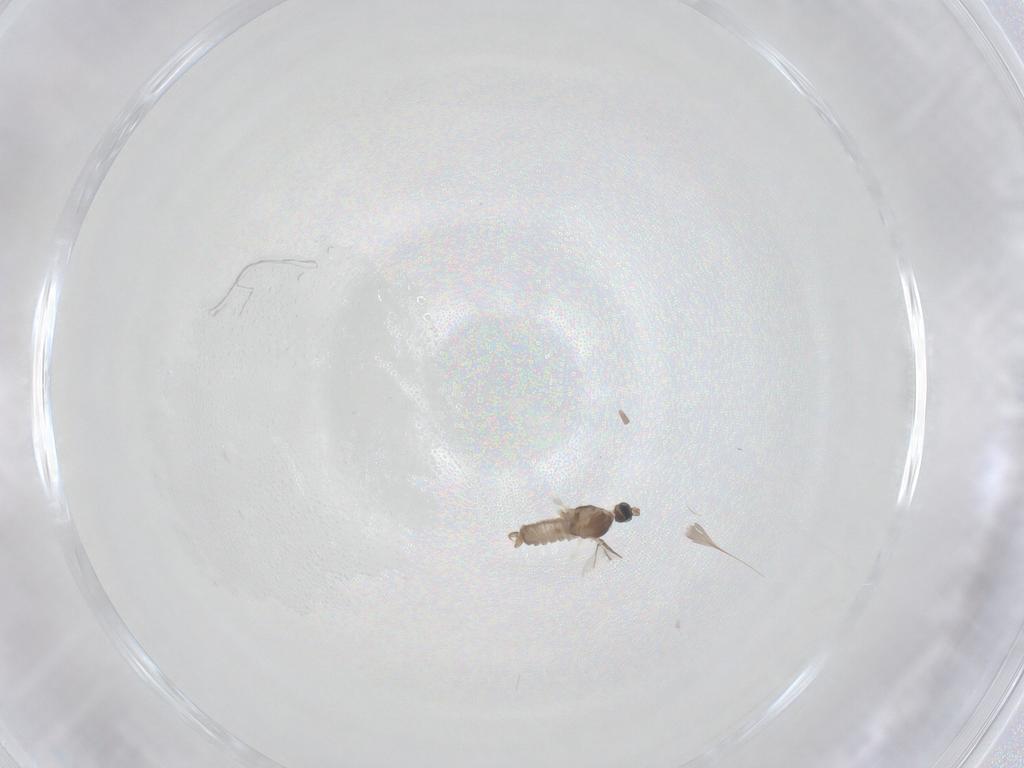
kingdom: Animalia
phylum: Arthropoda
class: Insecta
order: Diptera
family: Cecidomyiidae
